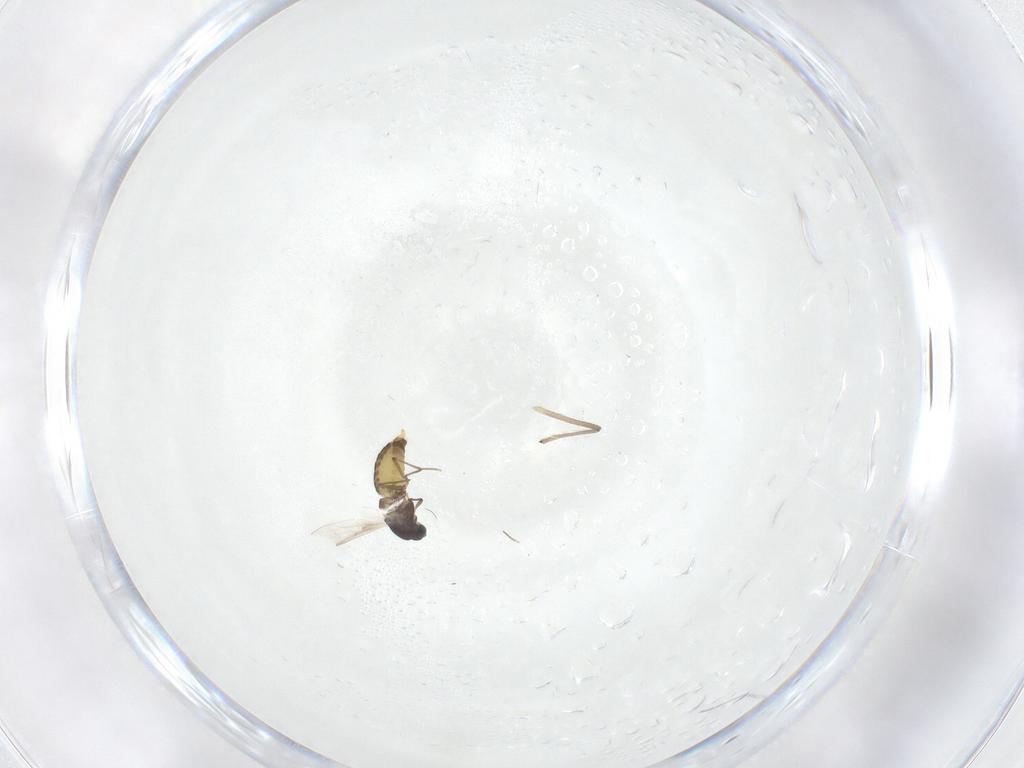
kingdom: Animalia
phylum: Arthropoda
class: Insecta
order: Diptera
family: Chironomidae
